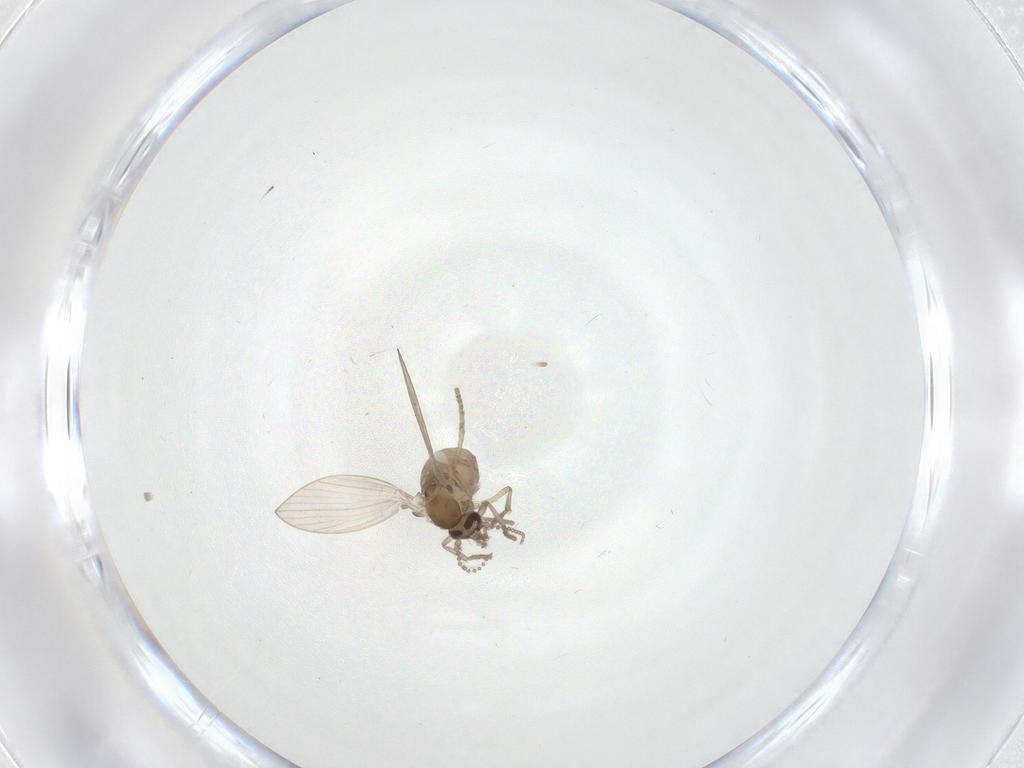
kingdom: Animalia
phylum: Arthropoda
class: Insecta
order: Diptera
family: Psychodidae
